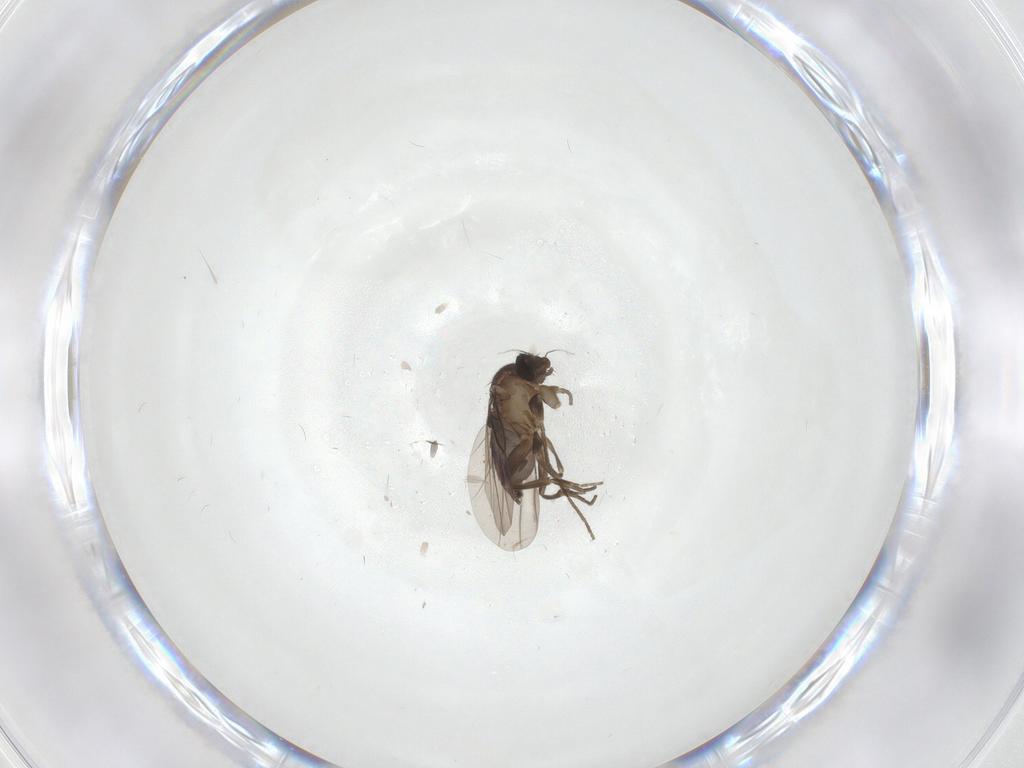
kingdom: Animalia
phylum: Arthropoda
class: Insecta
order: Diptera
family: Ceratopogonidae
